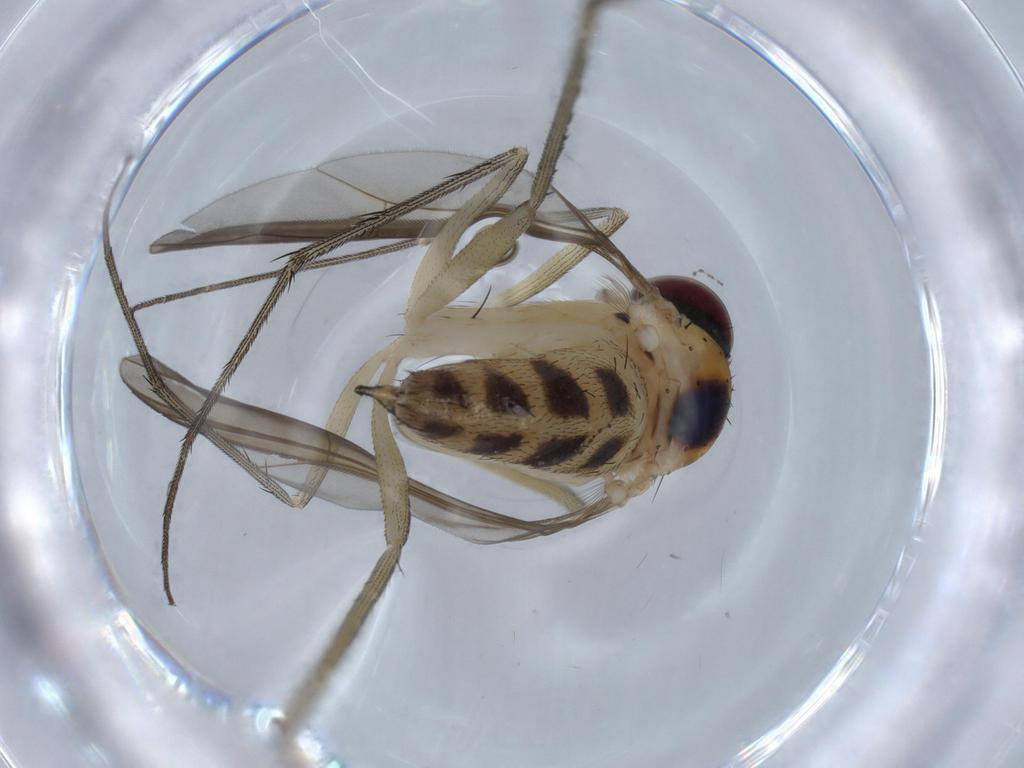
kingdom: Animalia
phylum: Arthropoda
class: Insecta
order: Diptera
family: Dolichopodidae
